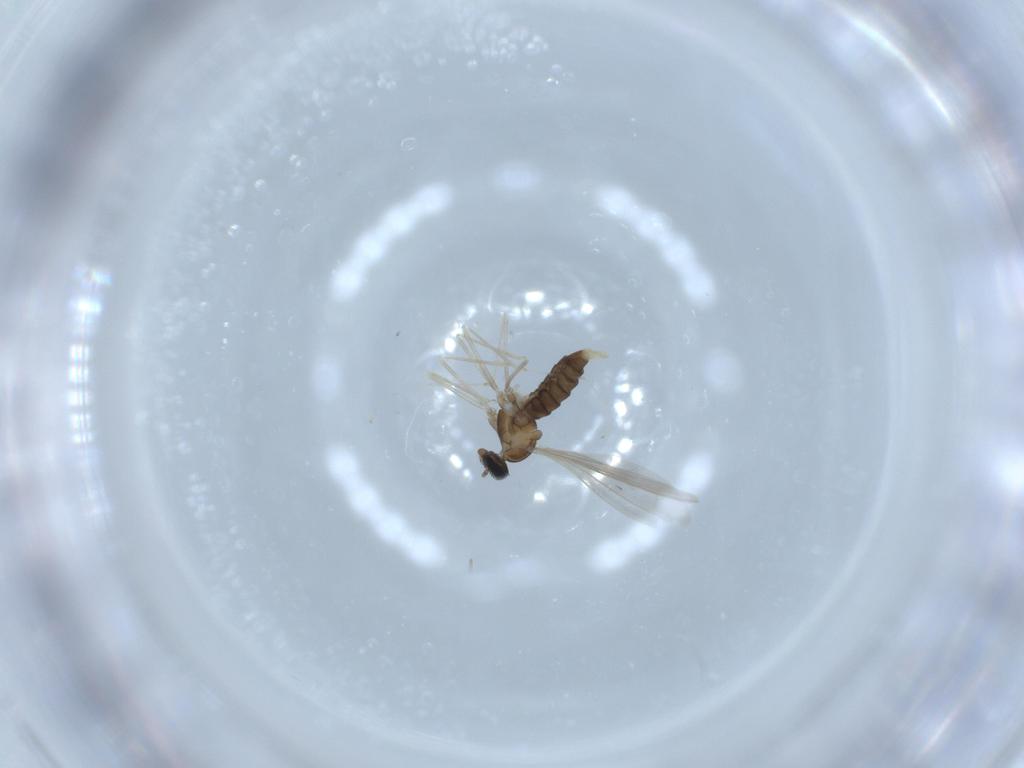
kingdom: Animalia
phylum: Arthropoda
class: Insecta
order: Diptera
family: Cecidomyiidae
